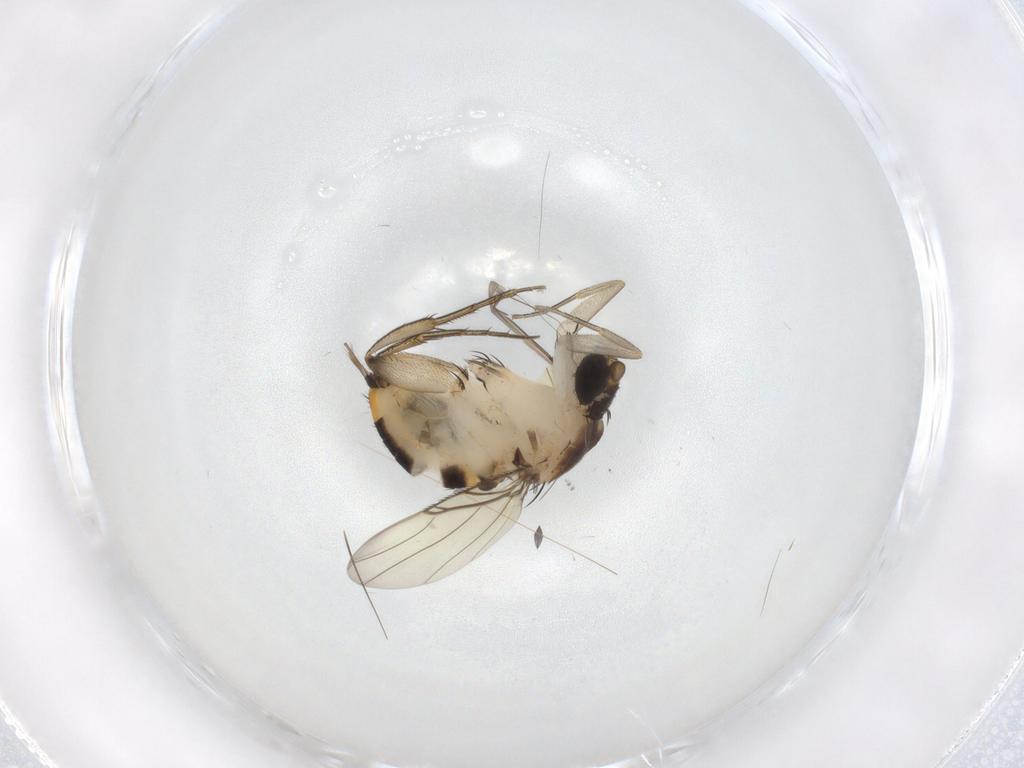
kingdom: Animalia
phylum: Arthropoda
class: Insecta
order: Diptera
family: Phoridae
